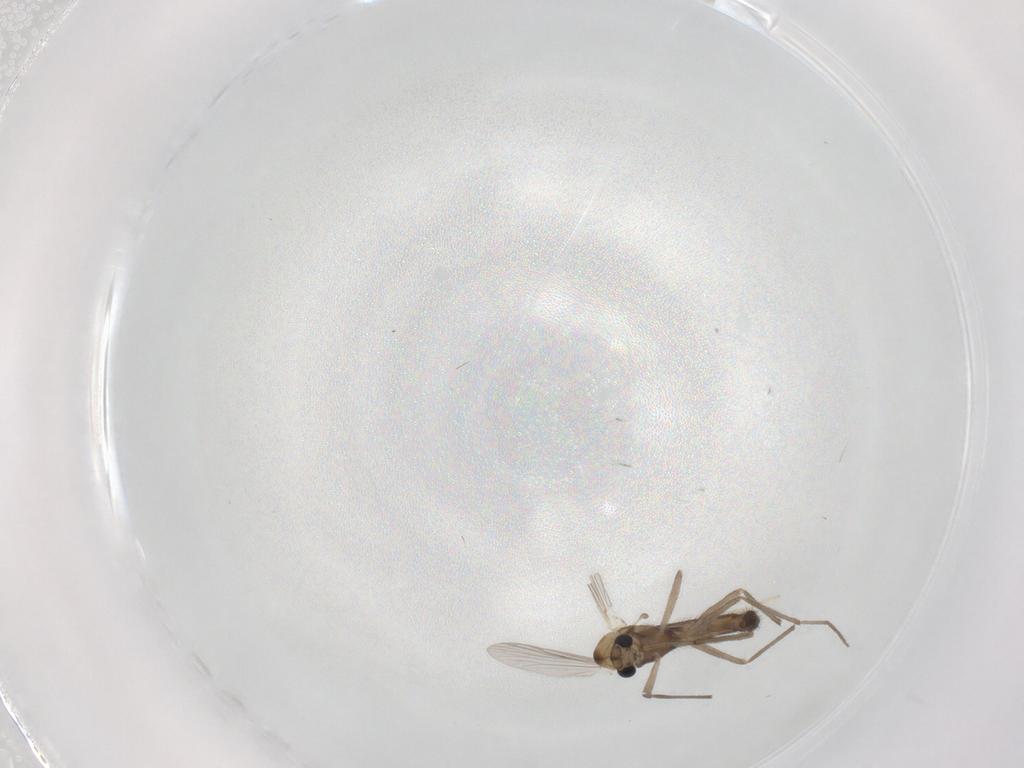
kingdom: Animalia
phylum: Arthropoda
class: Insecta
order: Diptera
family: Chironomidae
